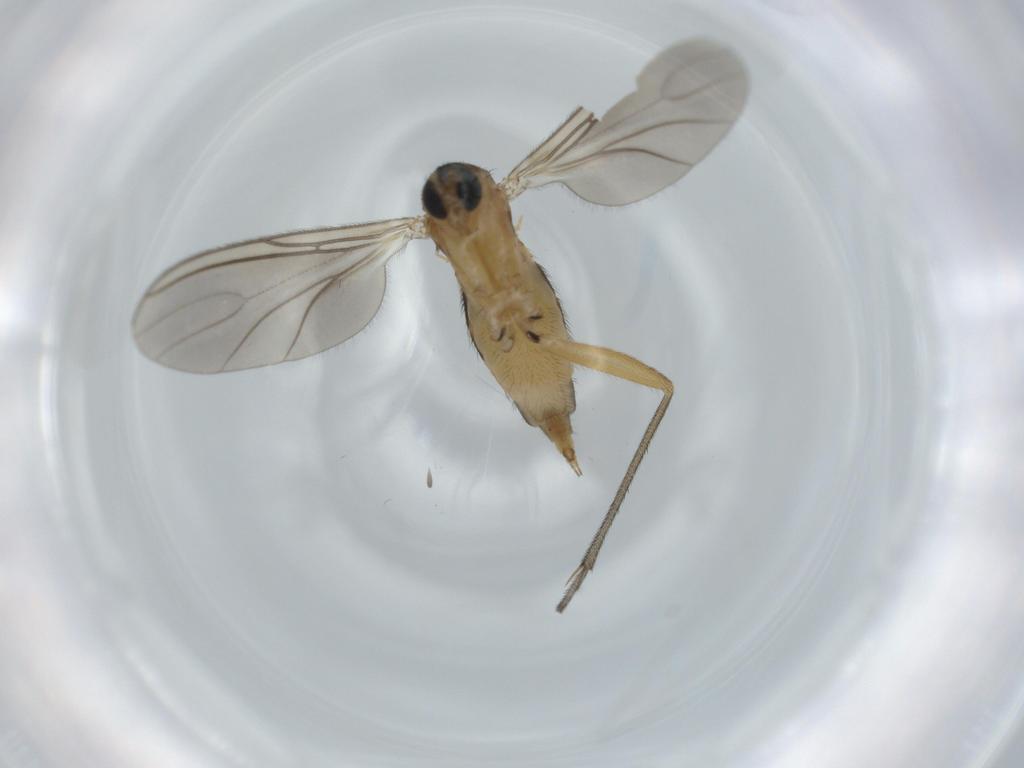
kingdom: Animalia
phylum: Arthropoda
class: Insecta
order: Diptera
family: Sciaridae
